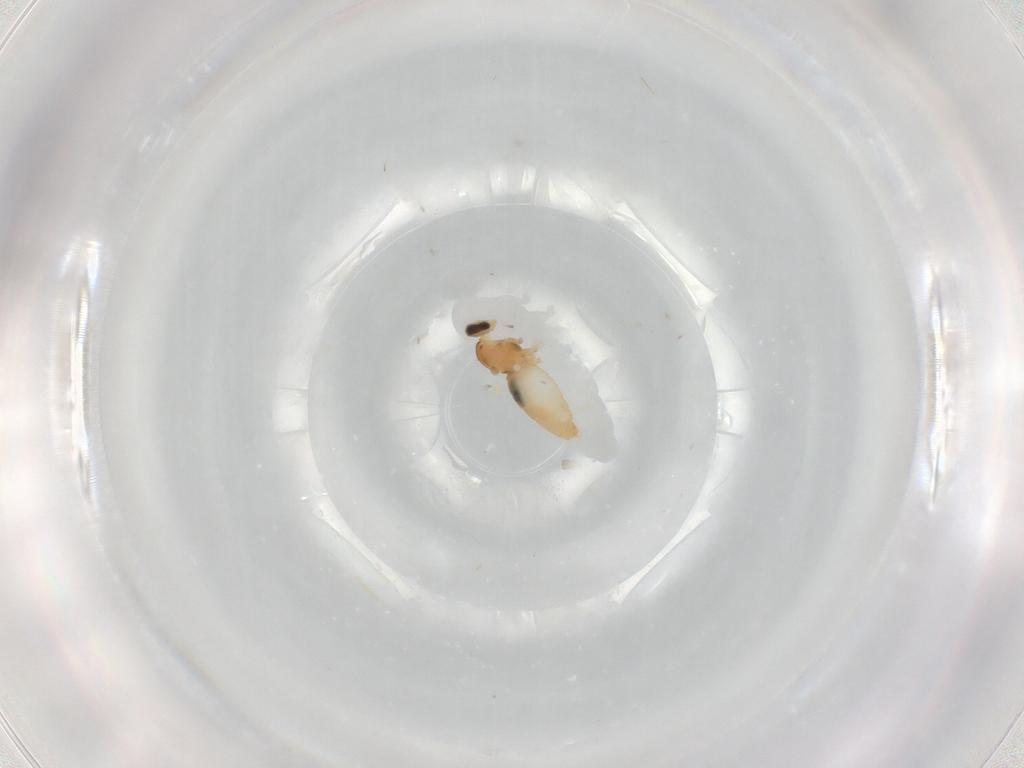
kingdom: Animalia
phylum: Arthropoda
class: Insecta
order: Diptera
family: Cecidomyiidae
